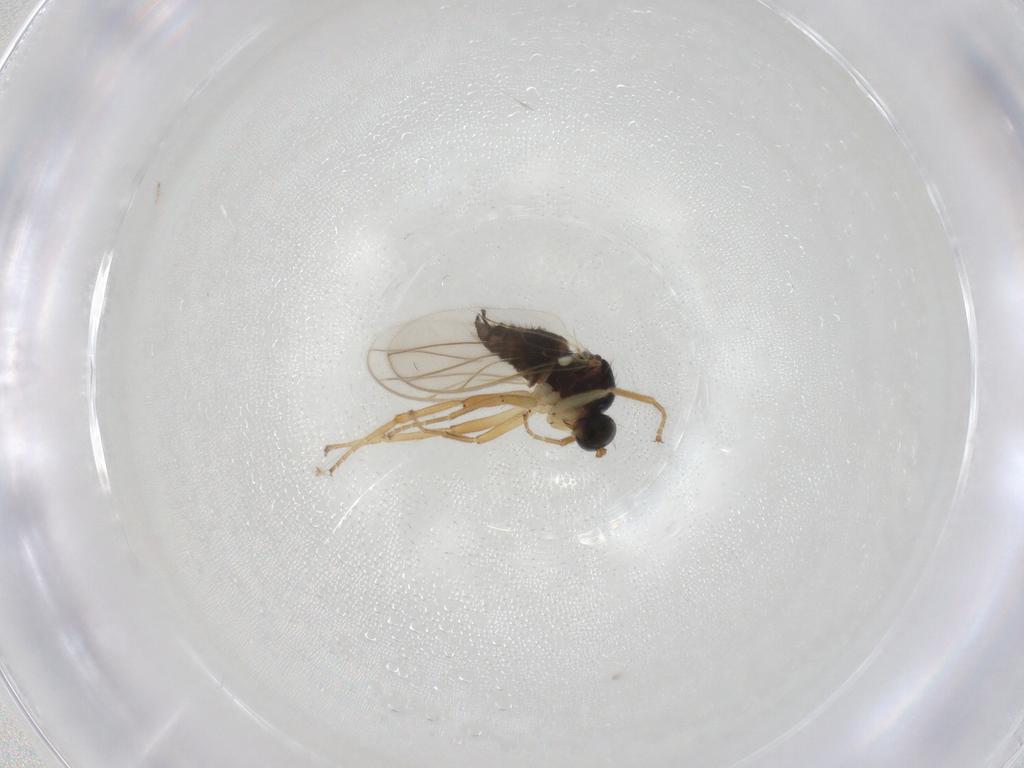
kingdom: Animalia
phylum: Arthropoda
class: Insecta
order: Diptera
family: Hybotidae
